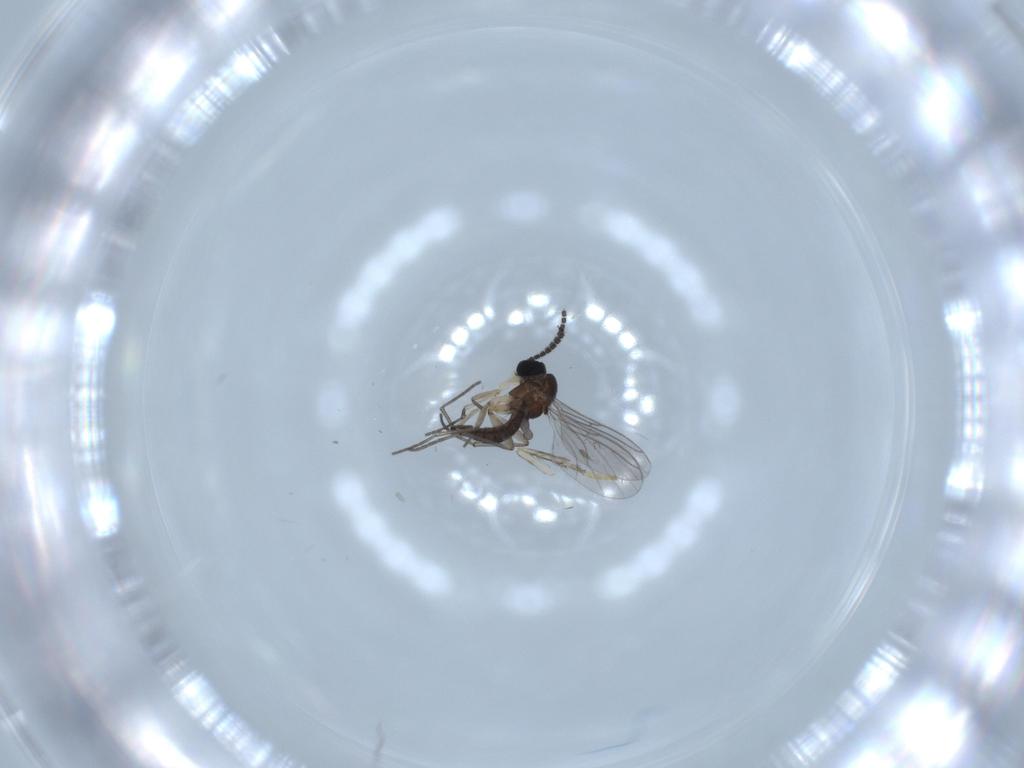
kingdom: Animalia
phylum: Arthropoda
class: Insecta
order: Diptera
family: Sciaridae
